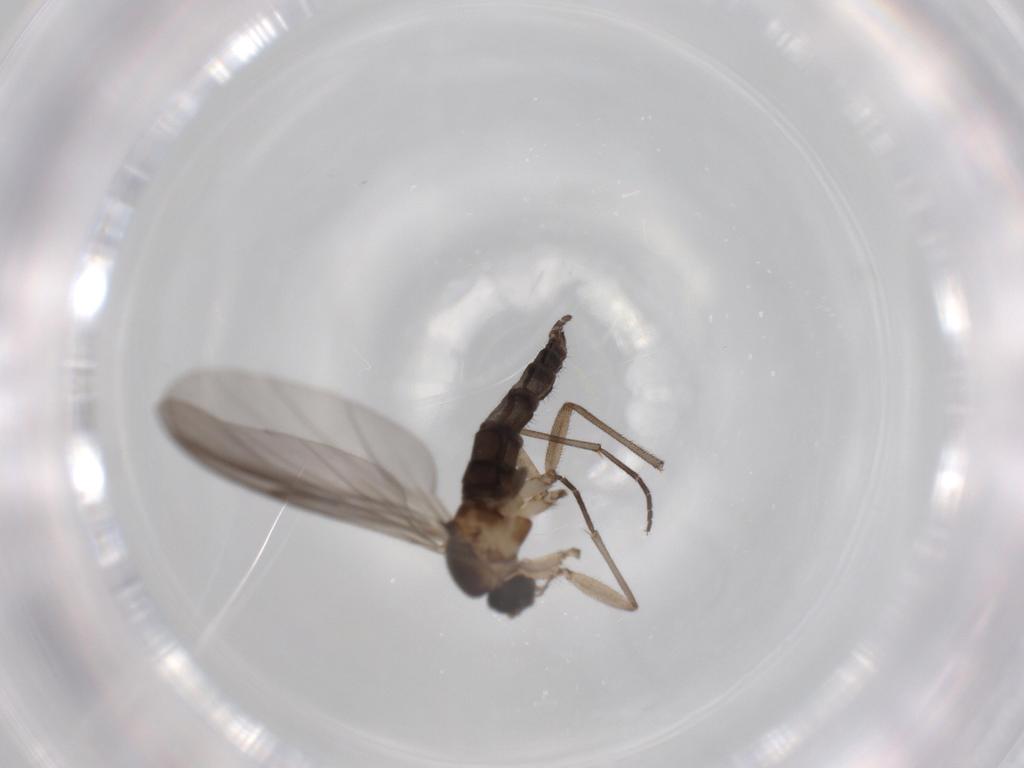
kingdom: Animalia
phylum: Arthropoda
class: Insecta
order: Diptera
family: Sciaridae
